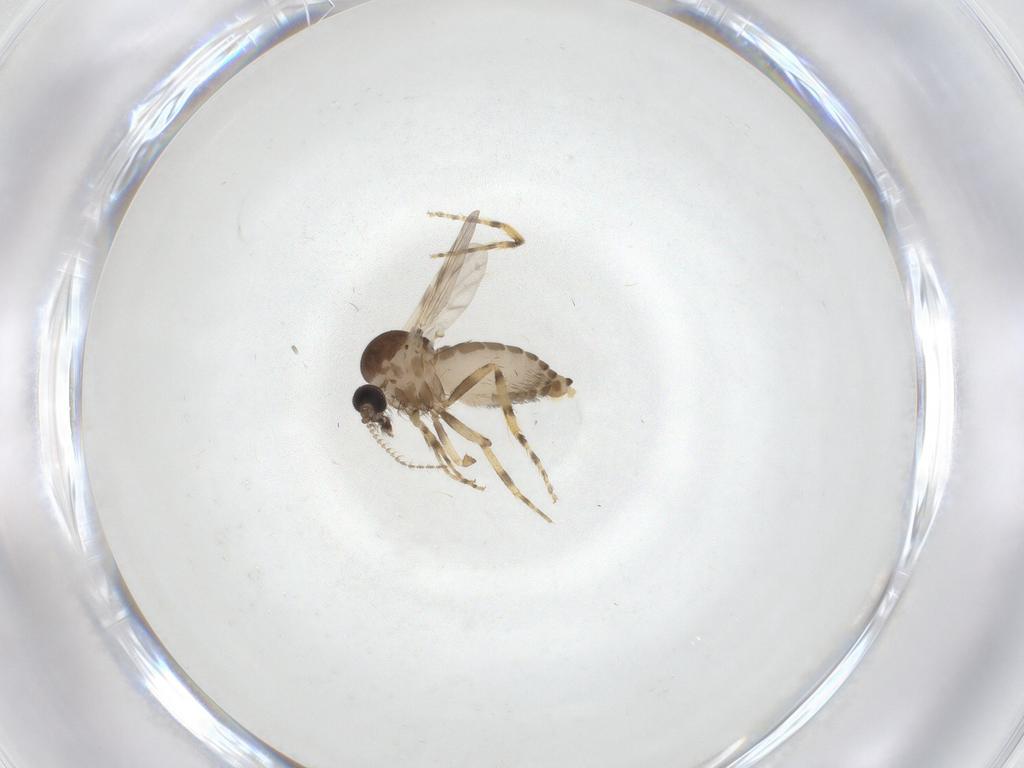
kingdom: Animalia
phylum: Arthropoda
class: Insecta
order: Diptera
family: Ceratopogonidae
